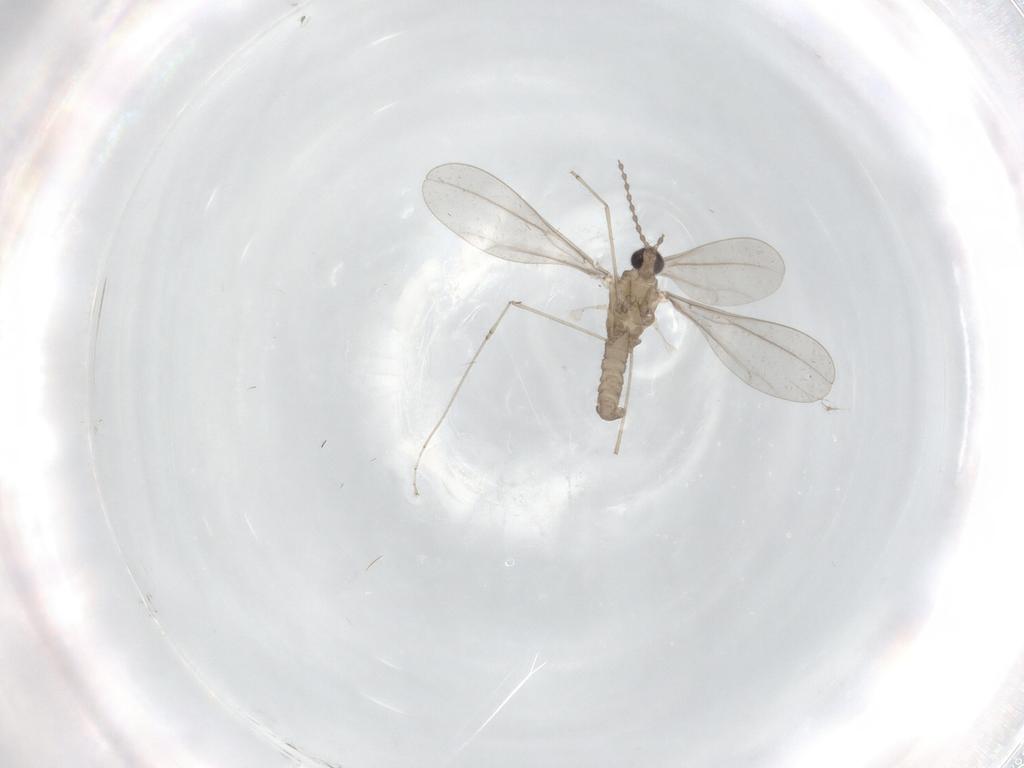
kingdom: Animalia
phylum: Arthropoda
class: Insecta
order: Diptera
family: Cecidomyiidae
